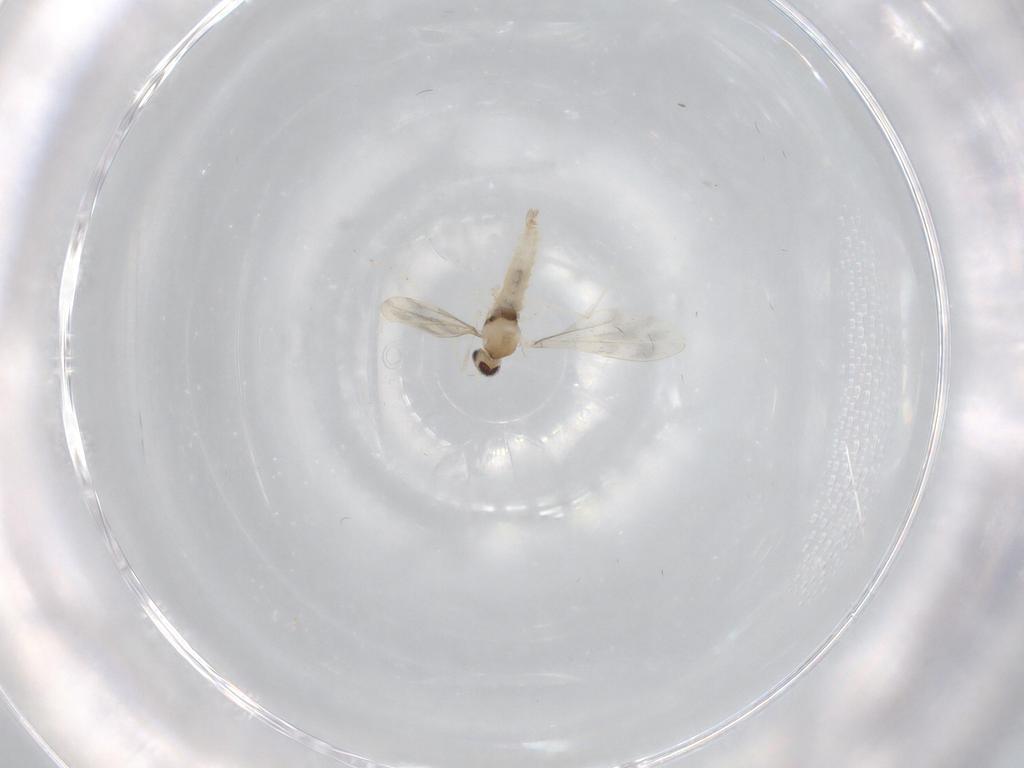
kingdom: Animalia
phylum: Arthropoda
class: Insecta
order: Diptera
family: Cecidomyiidae
